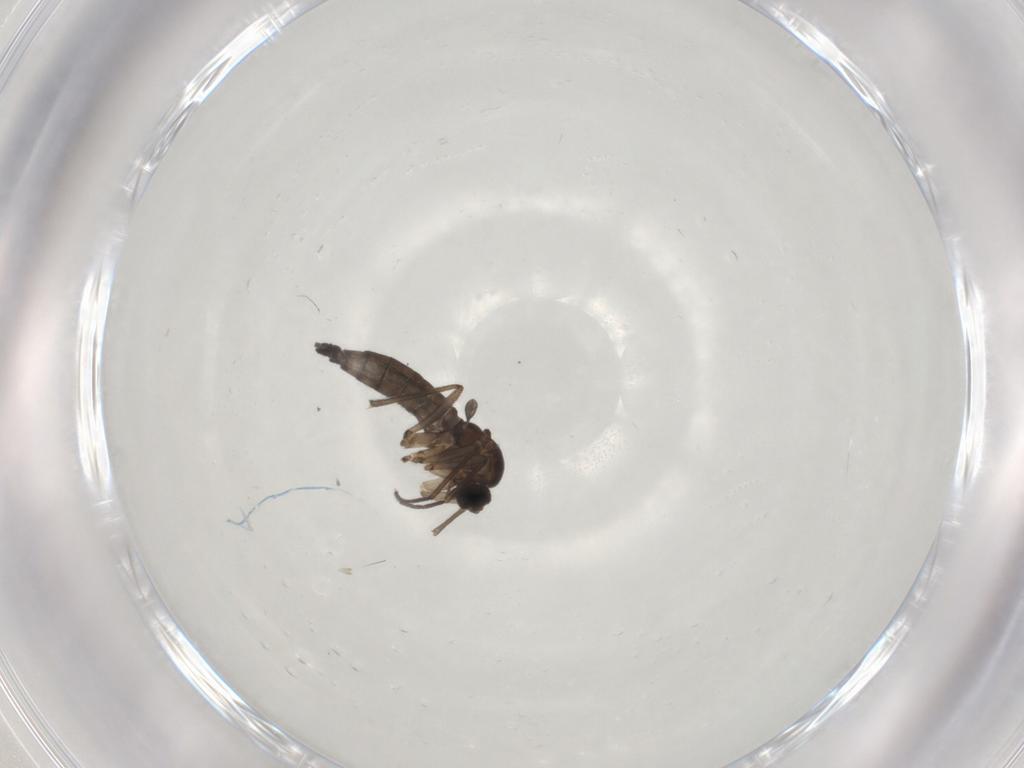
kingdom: Animalia
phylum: Arthropoda
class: Insecta
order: Diptera
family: Sciaridae
